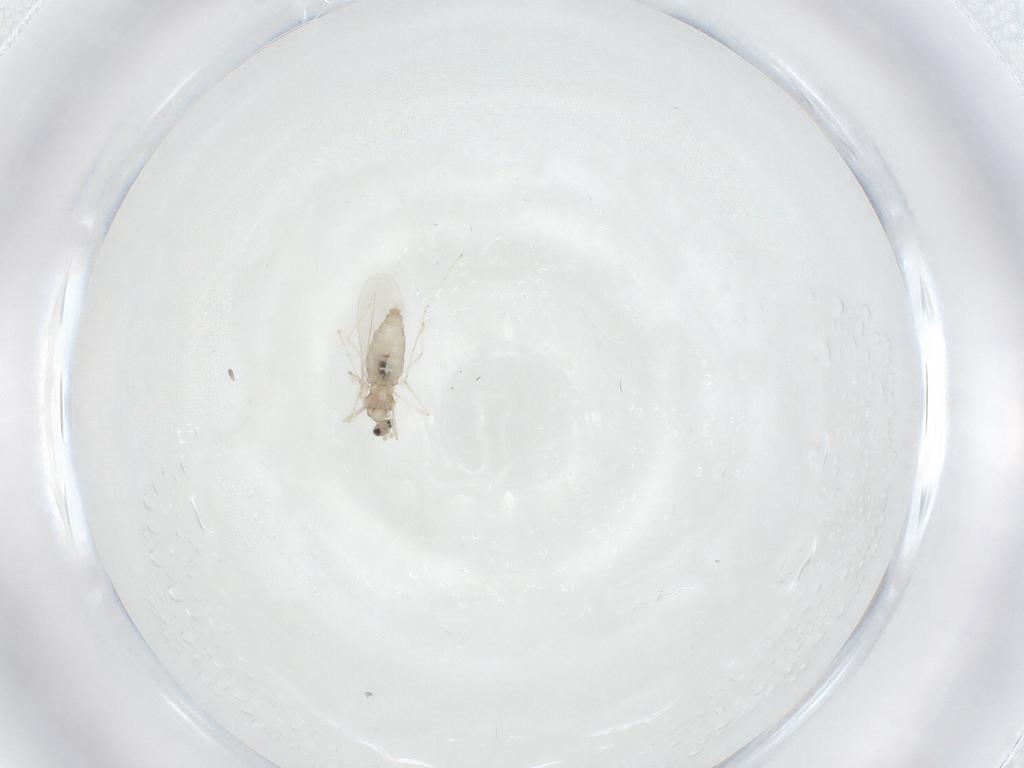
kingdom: Animalia
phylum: Arthropoda
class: Insecta
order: Diptera
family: Cecidomyiidae
